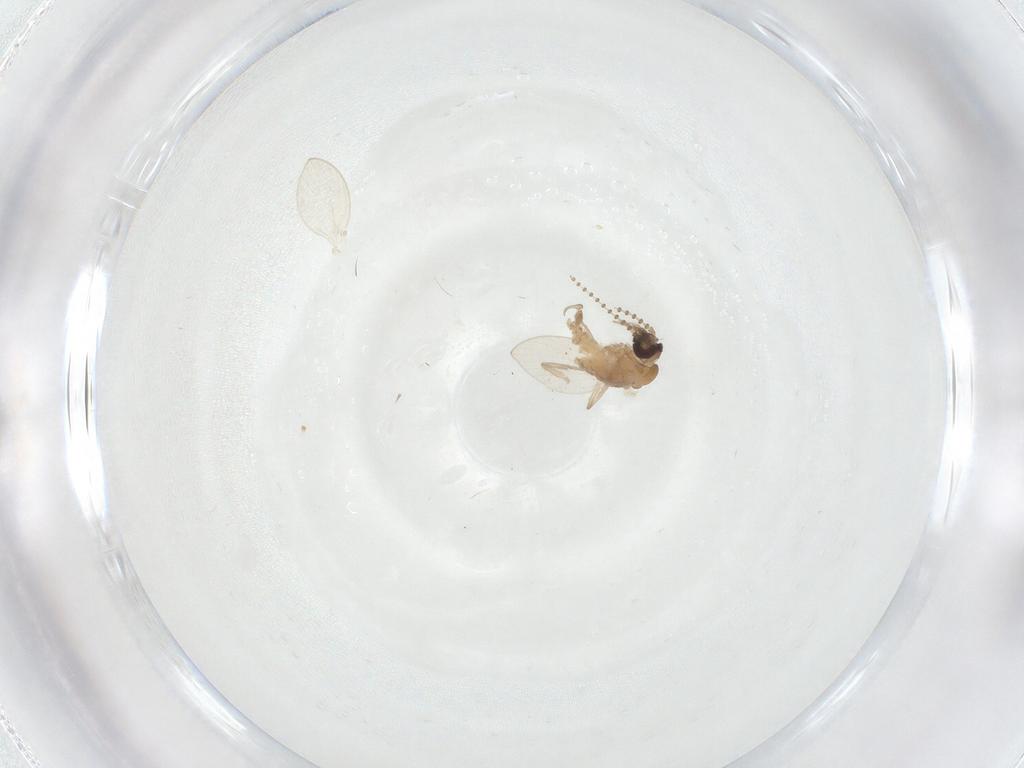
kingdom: Animalia
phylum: Arthropoda
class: Insecta
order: Diptera
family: Psychodidae
